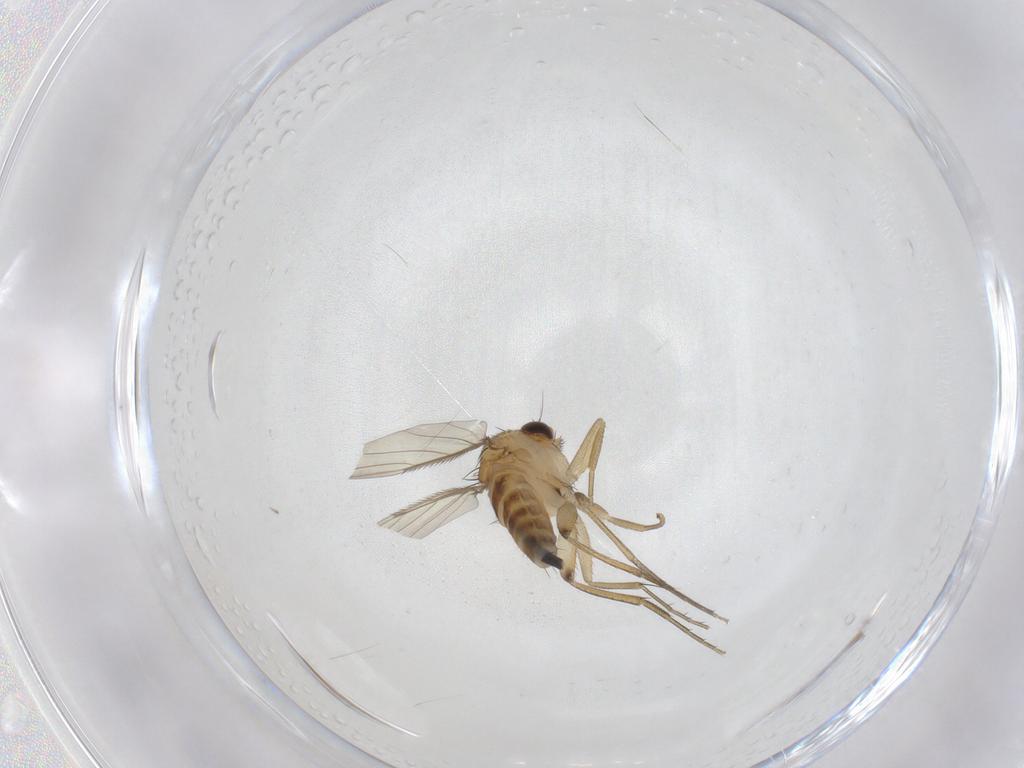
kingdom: Animalia
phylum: Arthropoda
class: Insecta
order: Diptera
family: Phoridae
